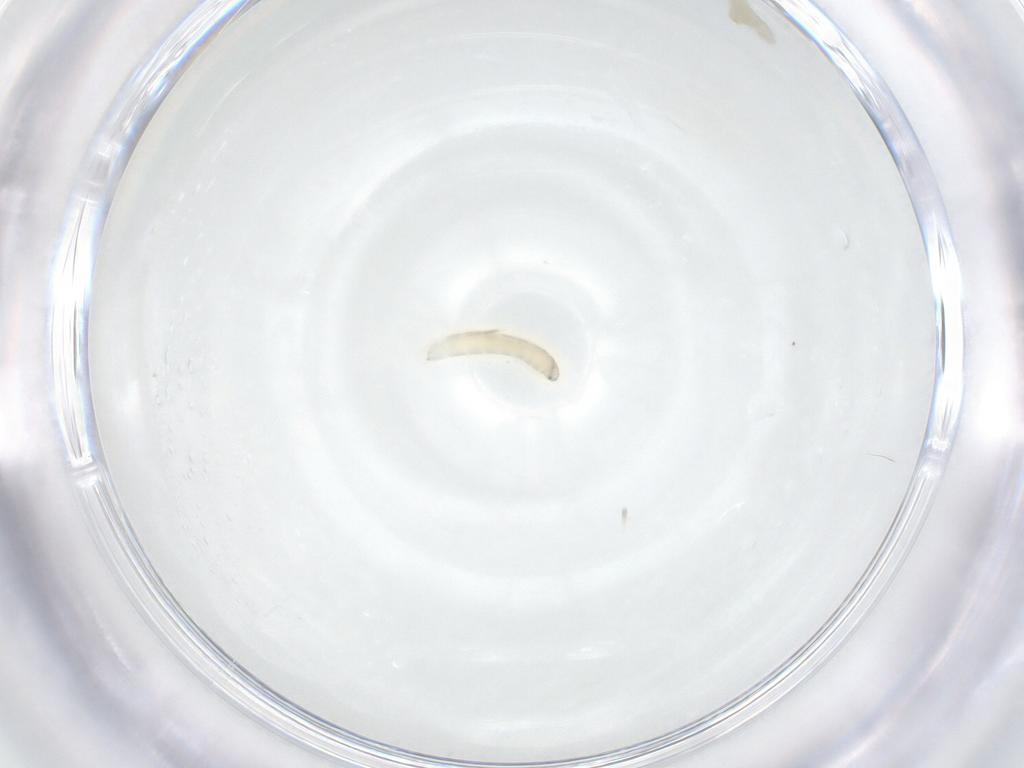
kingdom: Animalia
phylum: Arthropoda
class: Insecta
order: Diptera
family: Tachinidae
